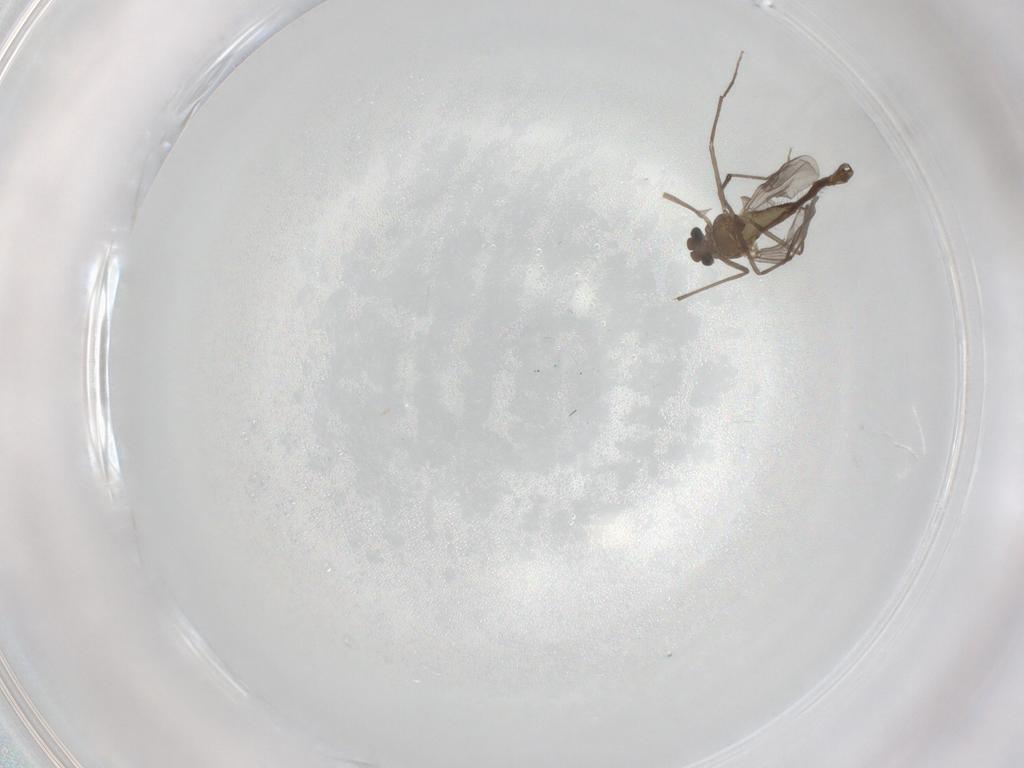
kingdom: Animalia
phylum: Arthropoda
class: Insecta
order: Diptera
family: Chironomidae
